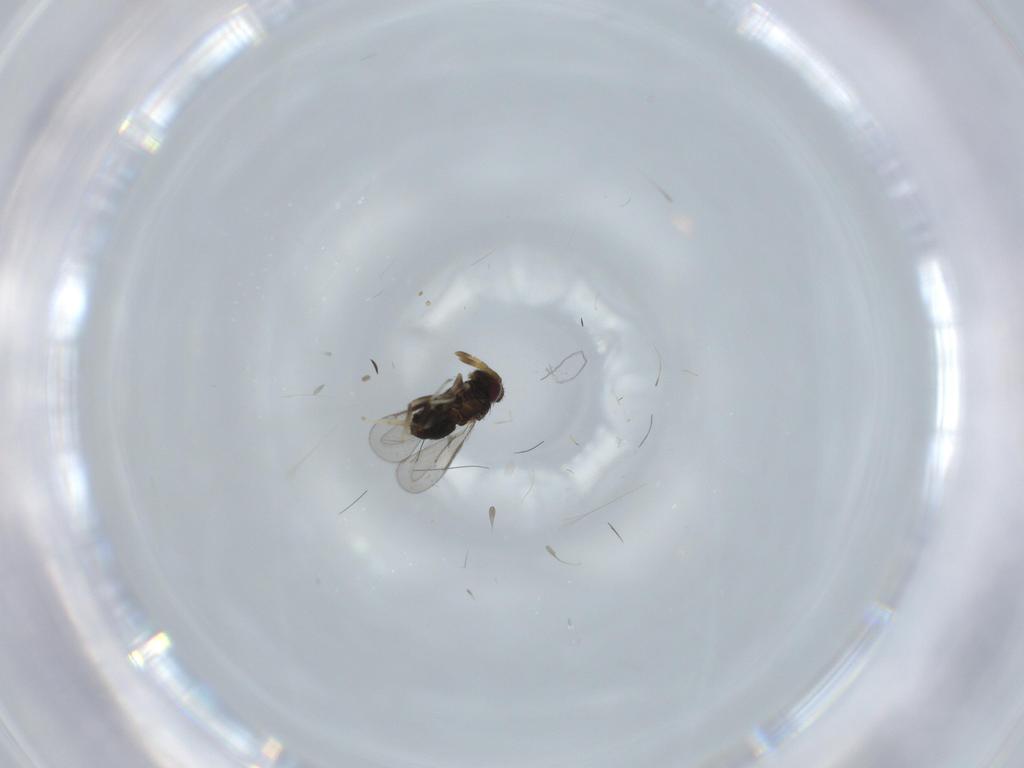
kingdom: Animalia
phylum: Arthropoda
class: Insecta
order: Hymenoptera
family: Aphelinidae
